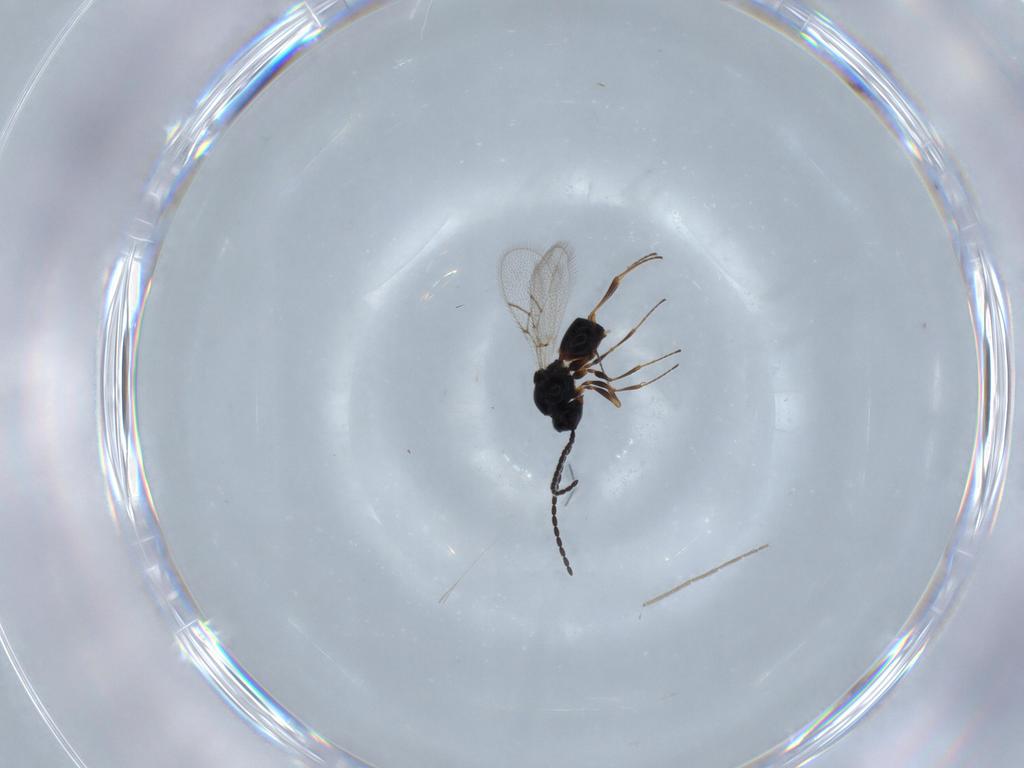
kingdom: Animalia
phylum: Arthropoda
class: Insecta
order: Hymenoptera
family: Figitidae
